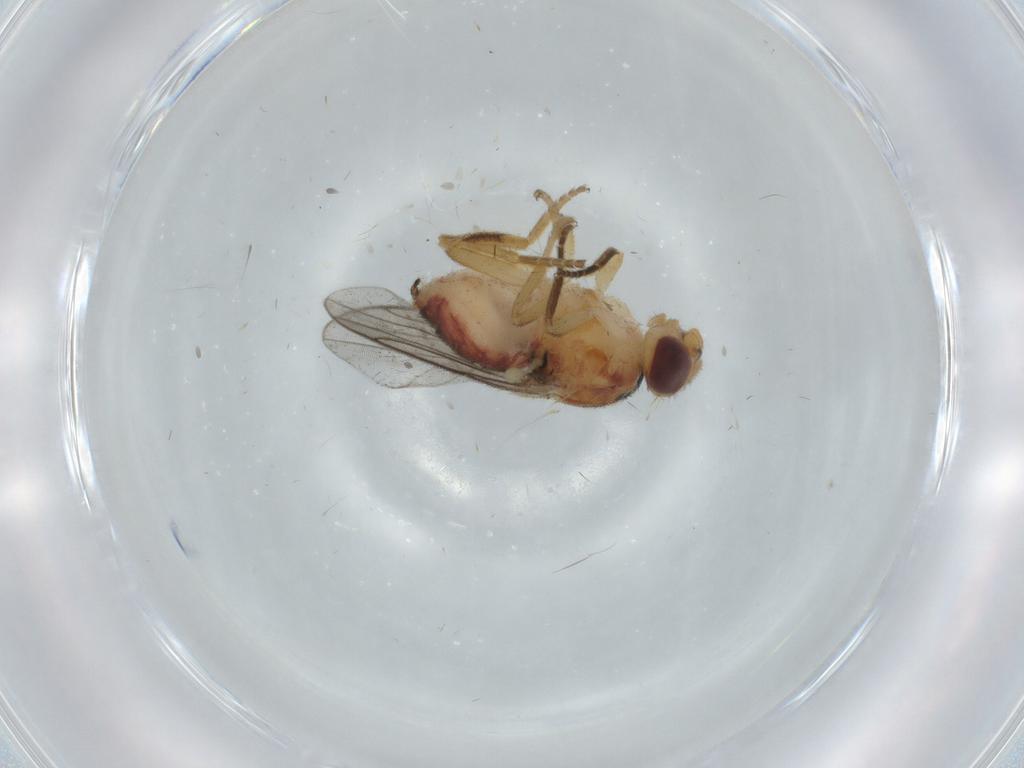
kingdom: Animalia
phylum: Arthropoda
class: Insecta
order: Diptera
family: Chloropidae
